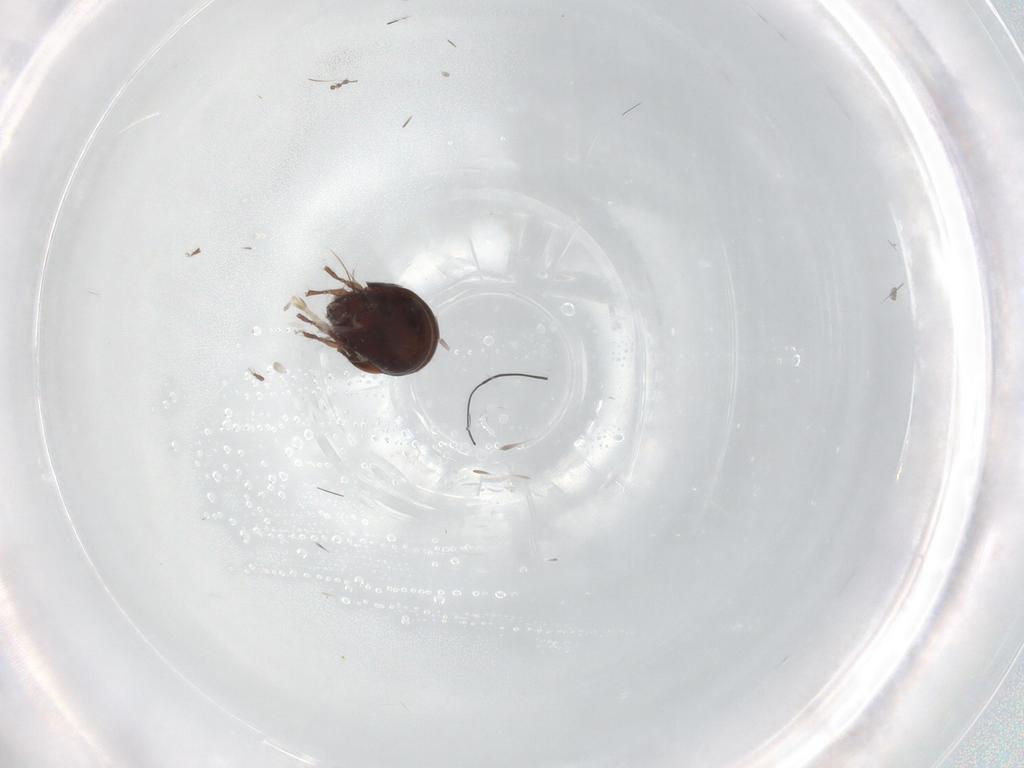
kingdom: Animalia
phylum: Arthropoda
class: Arachnida
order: Sarcoptiformes
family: Mochlozetidae
